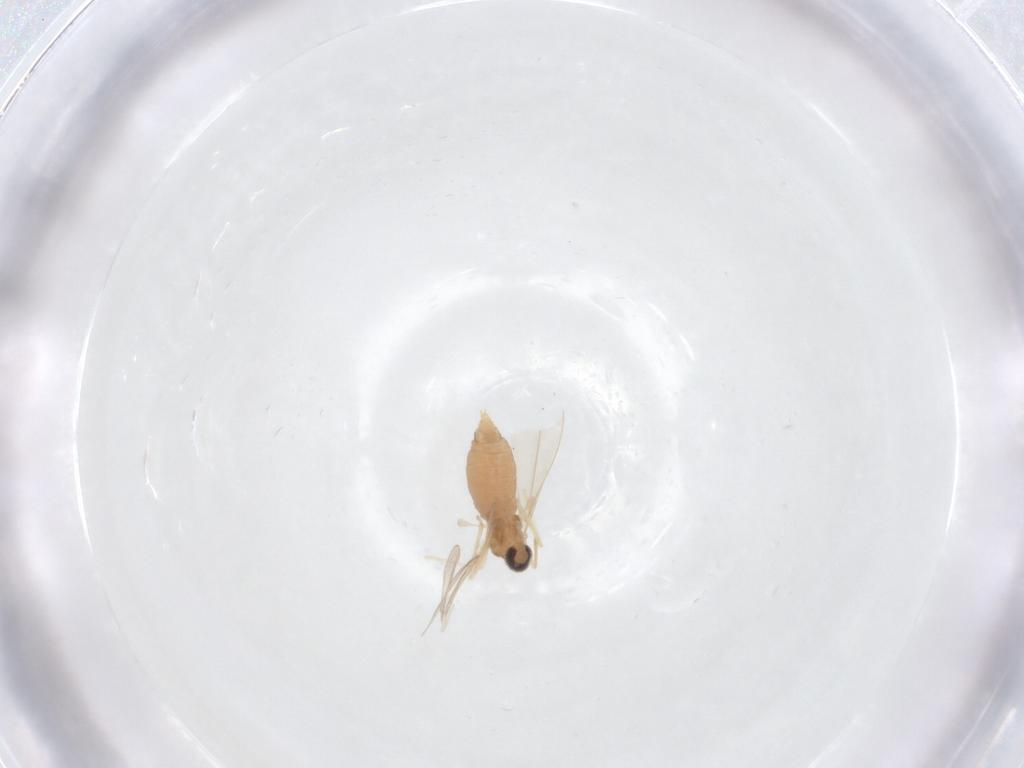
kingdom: Animalia
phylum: Arthropoda
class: Insecta
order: Diptera
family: Cecidomyiidae
